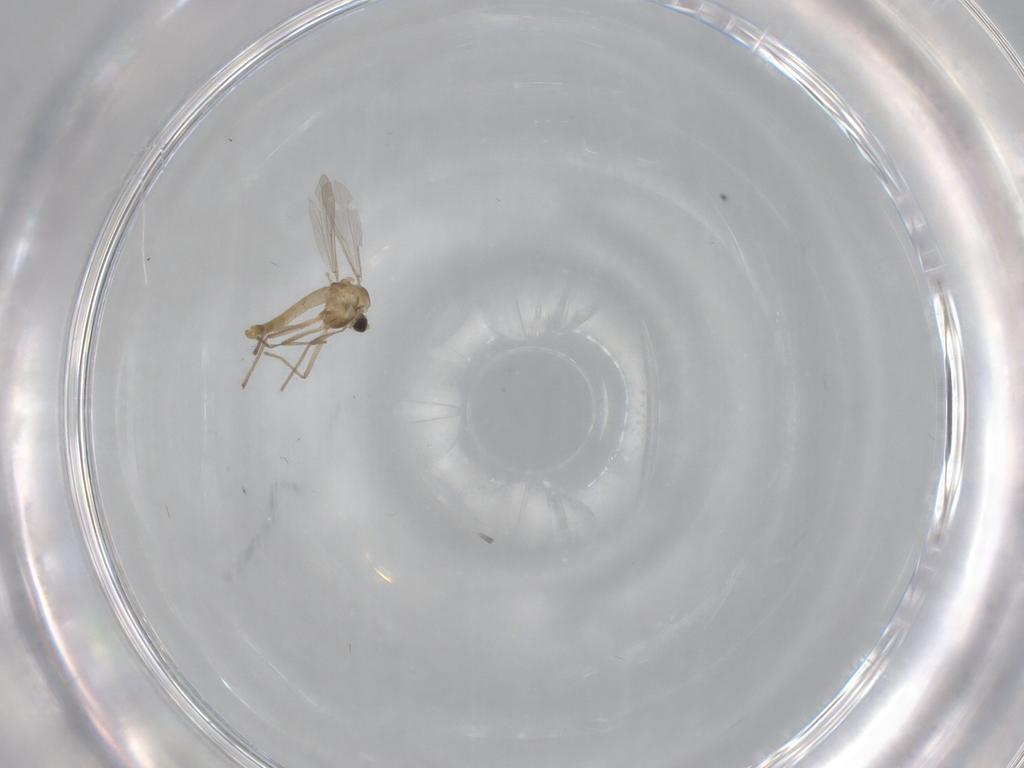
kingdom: Animalia
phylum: Arthropoda
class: Insecta
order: Diptera
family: Chironomidae
